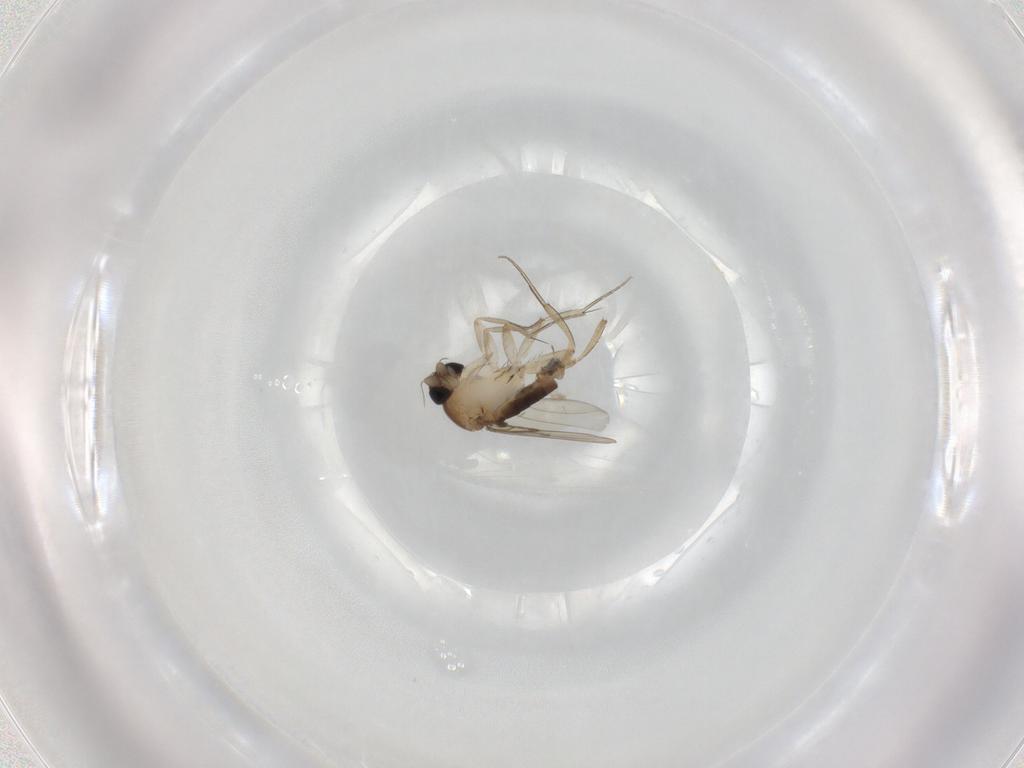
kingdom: Animalia
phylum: Arthropoda
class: Insecta
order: Diptera
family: Phoridae
